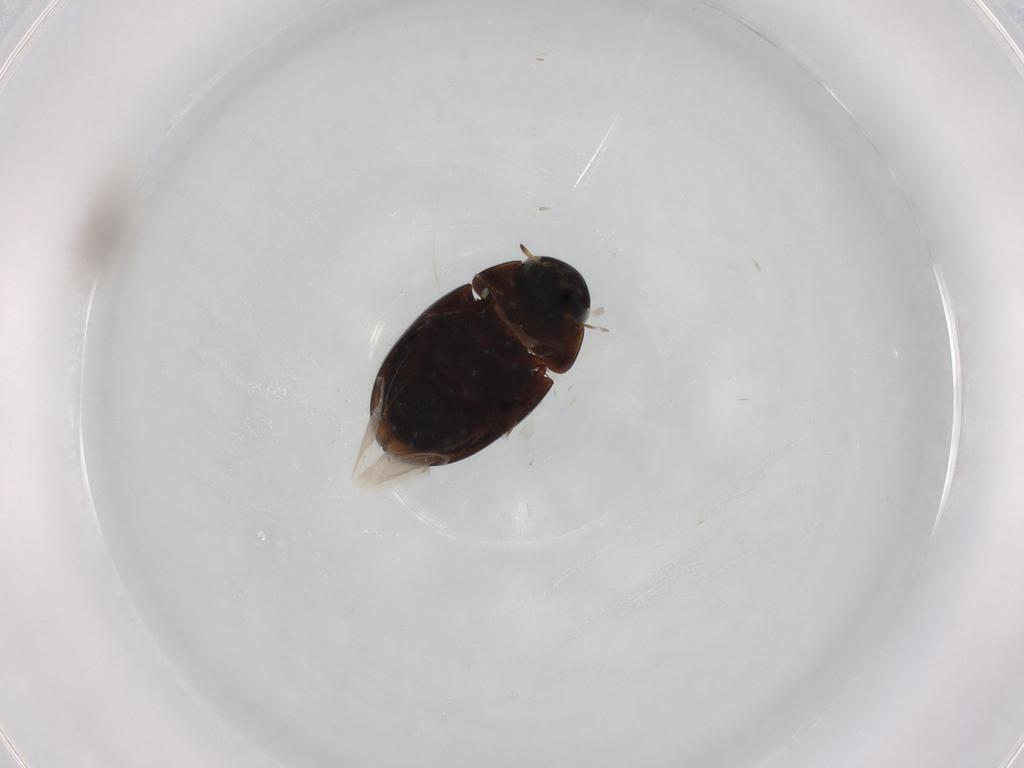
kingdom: Animalia
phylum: Arthropoda
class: Insecta
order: Coleoptera
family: Hydrophilidae
